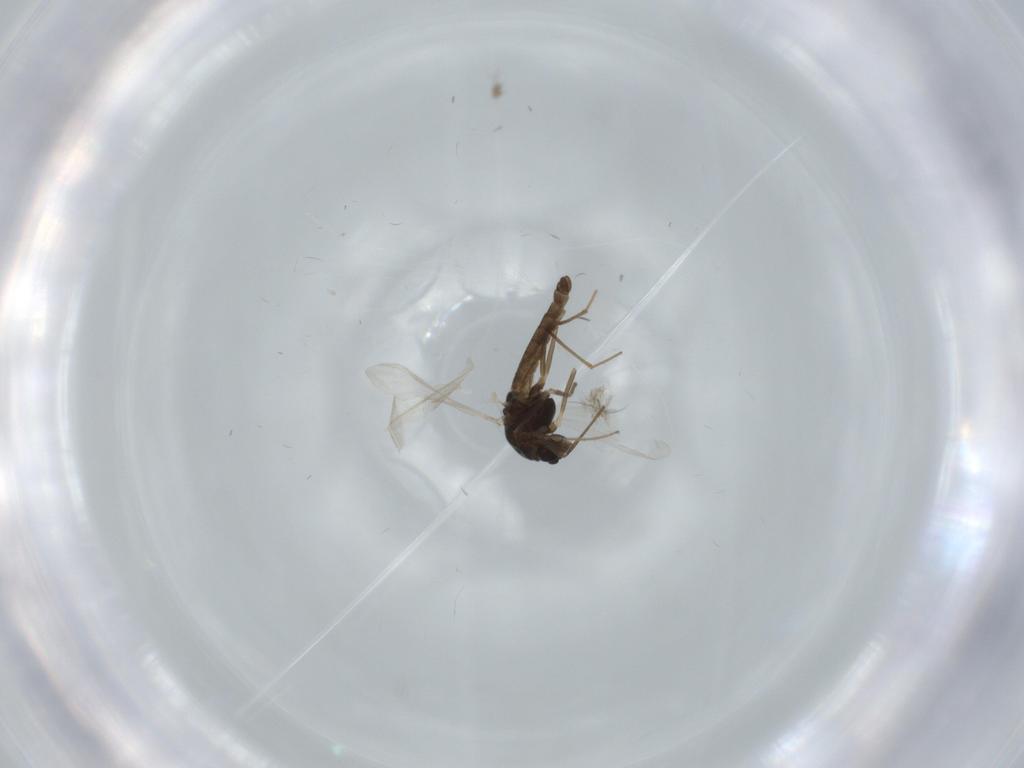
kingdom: Animalia
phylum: Arthropoda
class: Insecta
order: Diptera
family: Chironomidae
